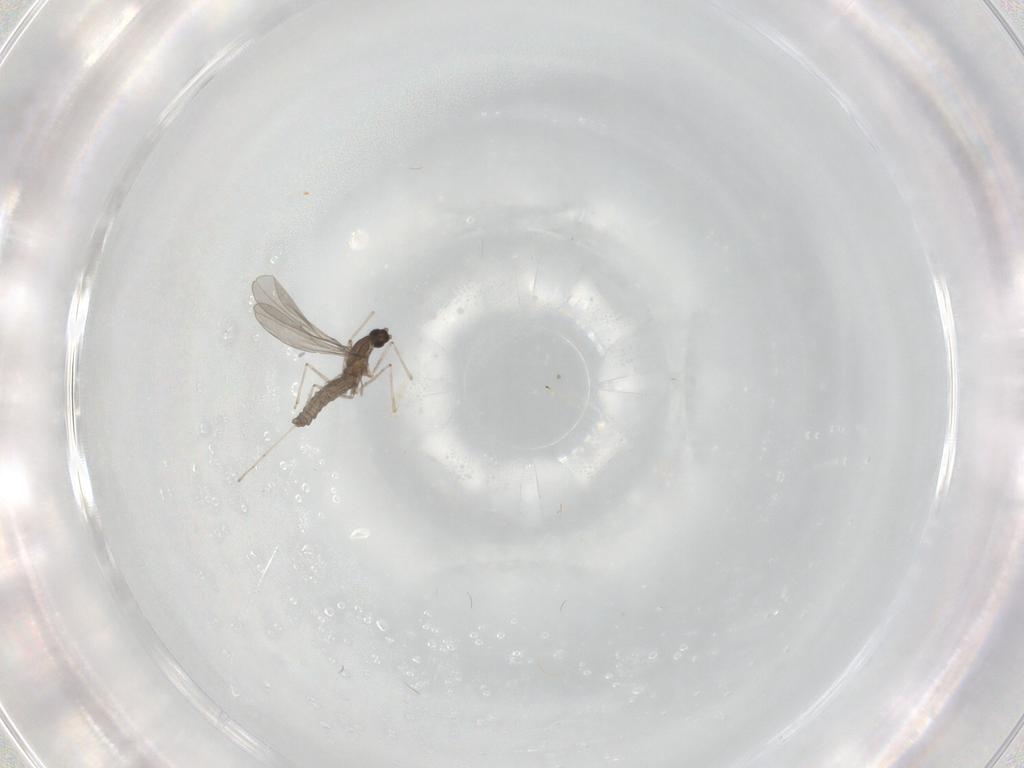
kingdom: Animalia
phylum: Arthropoda
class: Insecta
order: Diptera
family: Cecidomyiidae
